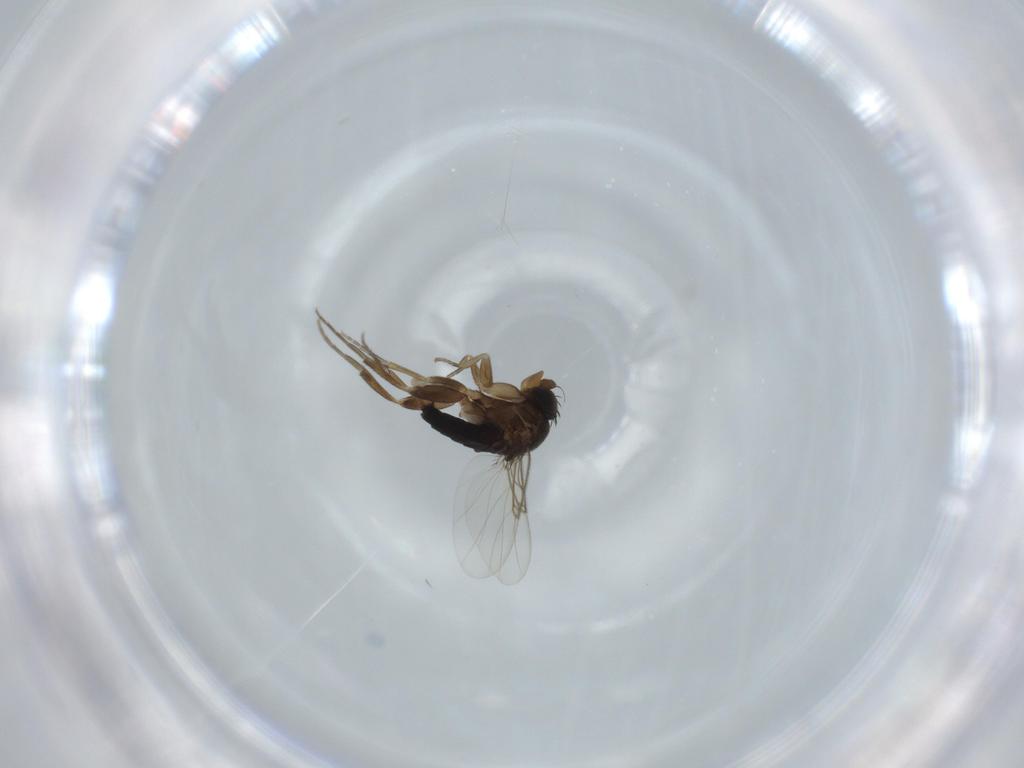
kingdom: Animalia
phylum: Arthropoda
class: Insecta
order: Diptera
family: Phoridae
